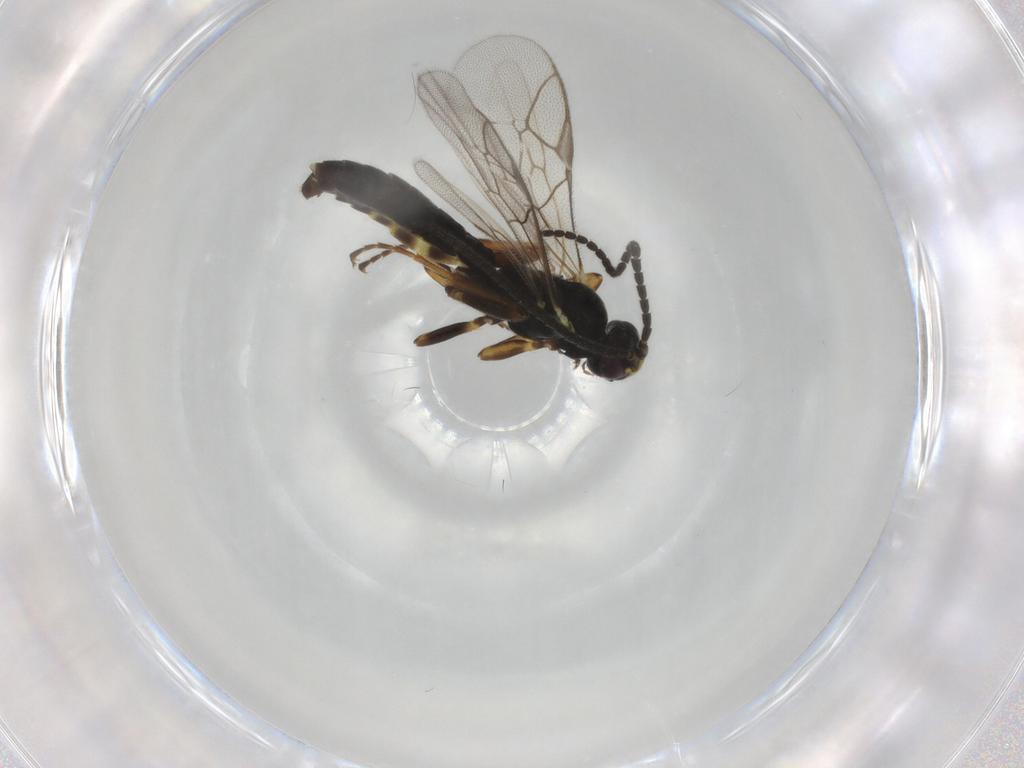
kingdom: Animalia
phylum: Arthropoda
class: Insecta
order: Hymenoptera
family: Ichneumonidae
